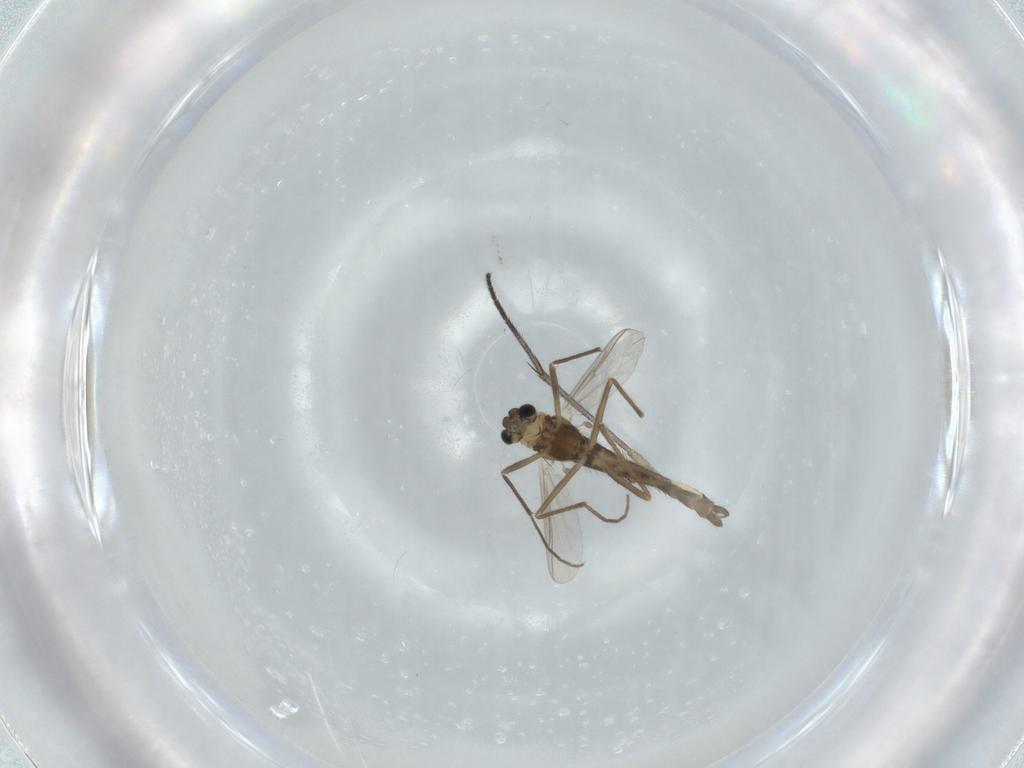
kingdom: Animalia
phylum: Arthropoda
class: Insecta
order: Diptera
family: Chironomidae
